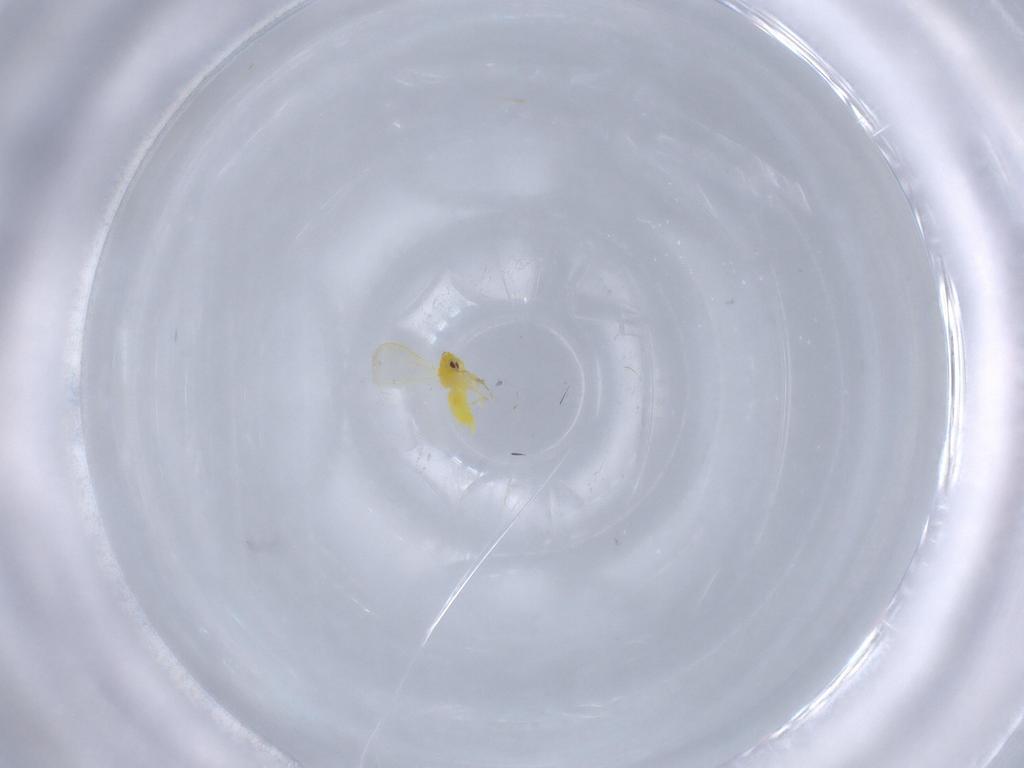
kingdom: Animalia
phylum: Arthropoda
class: Insecta
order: Hemiptera
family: Aleyrodidae
